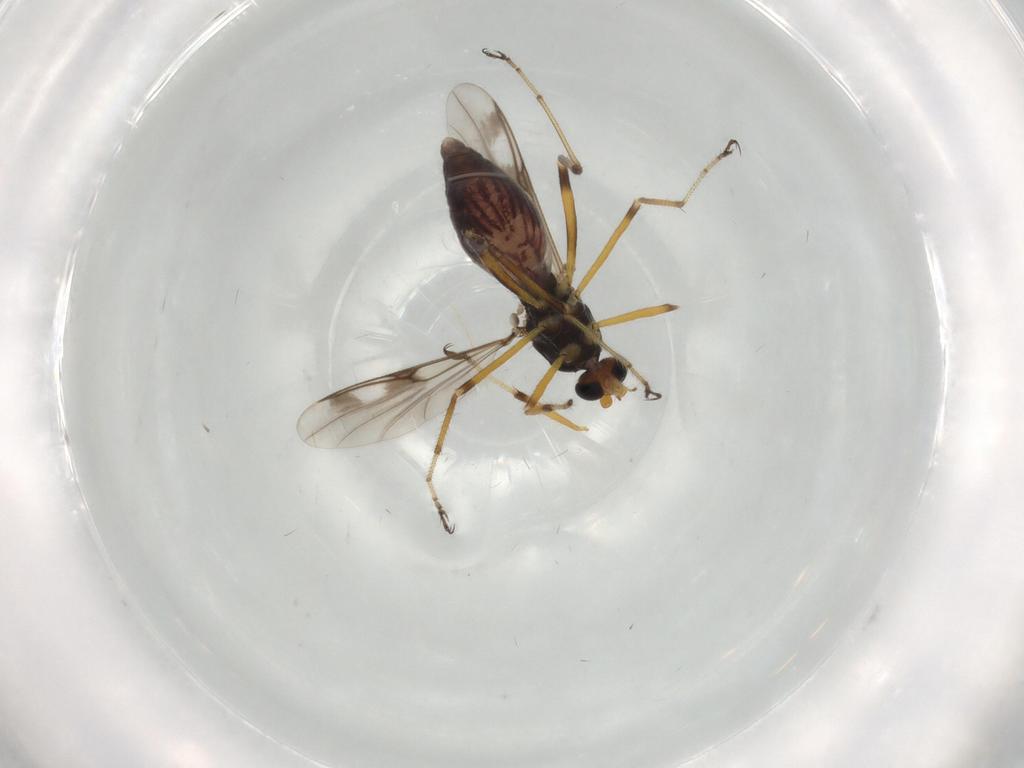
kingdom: Animalia
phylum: Arthropoda
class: Insecta
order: Diptera
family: Ceratopogonidae
